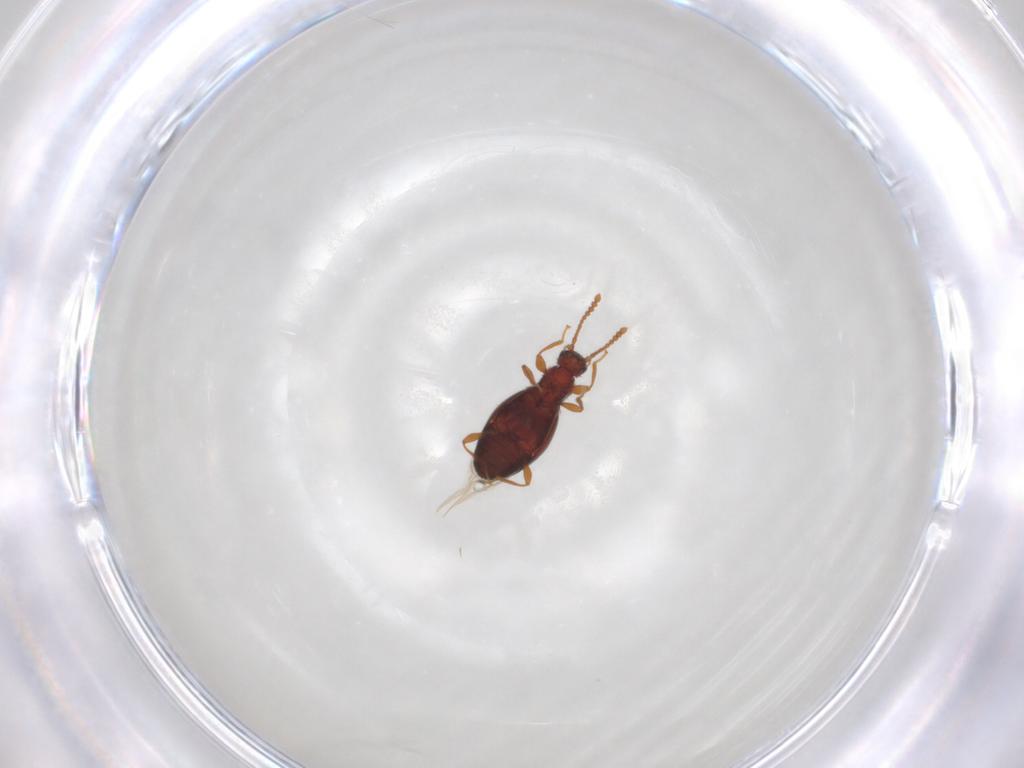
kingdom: Animalia
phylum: Arthropoda
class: Insecta
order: Coleoptera
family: Staphylinidae
